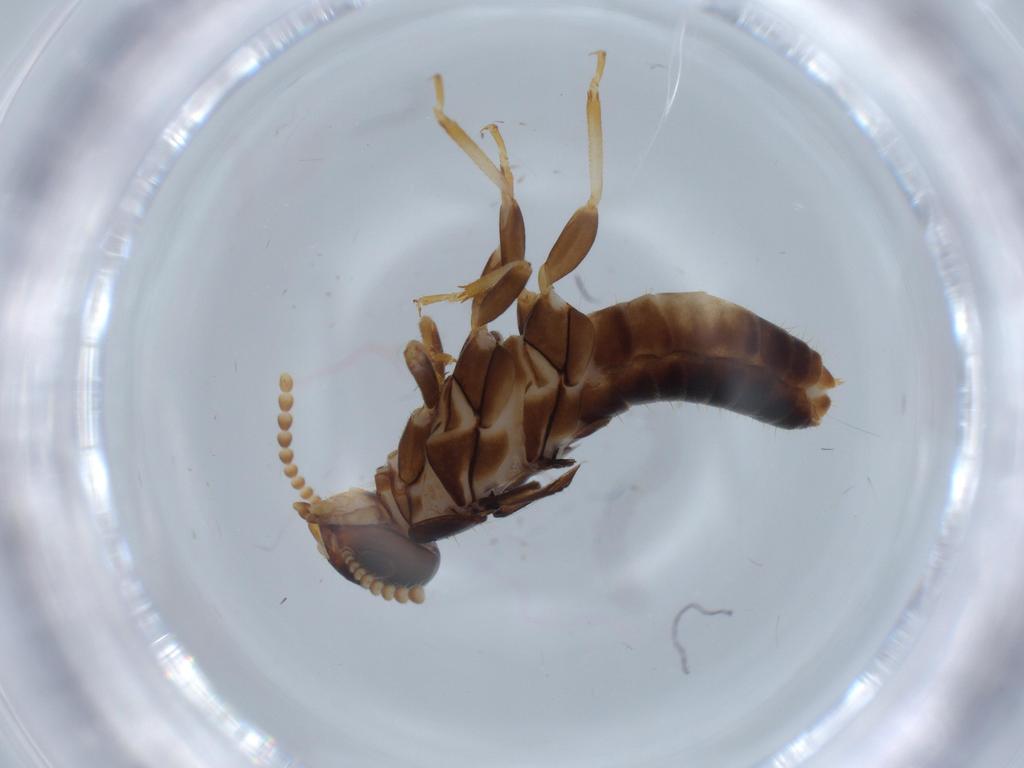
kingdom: Animalia
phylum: Arthropoda
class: Insecta
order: Blattodea
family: Kalotermitidae
